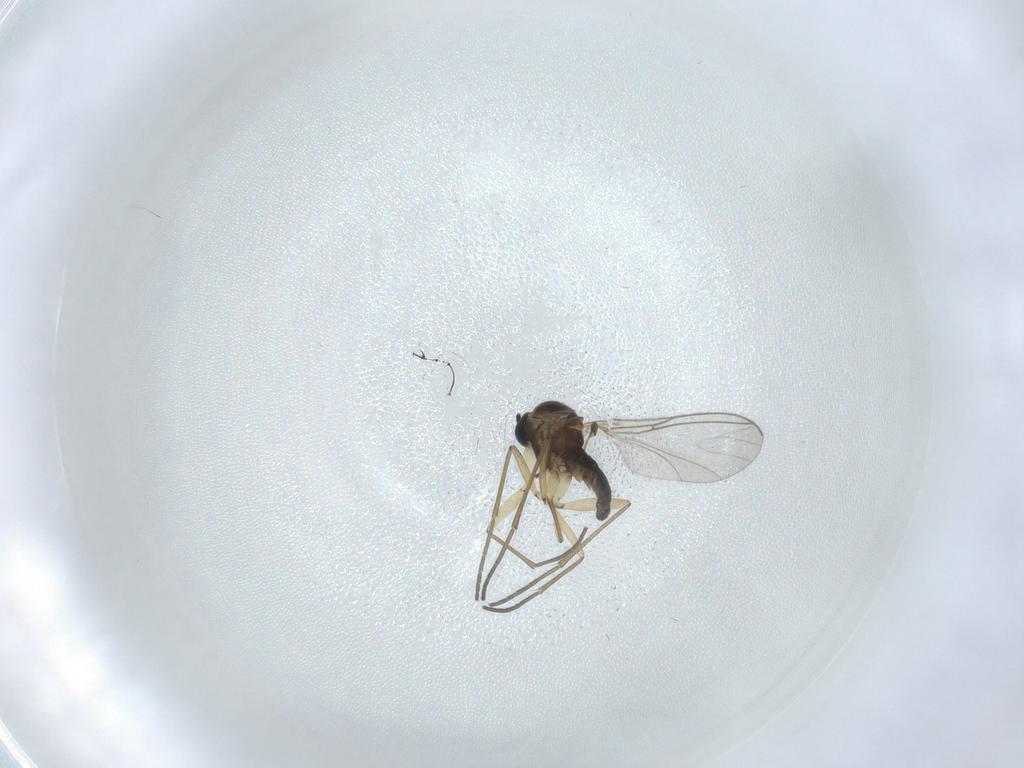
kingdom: Animalia
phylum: Arthropoda
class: Insecta
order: Diptera
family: Sciaridae
